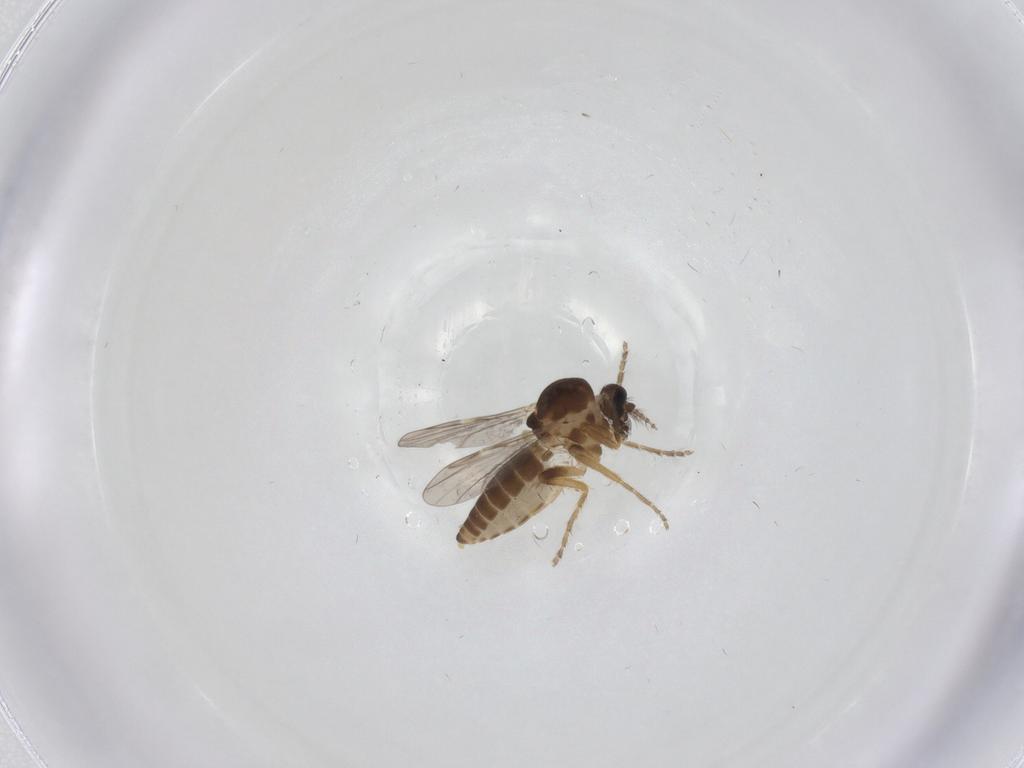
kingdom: Animalia
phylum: Arthropoda
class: Insecta
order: Diptera
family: Ceratopogonidae
